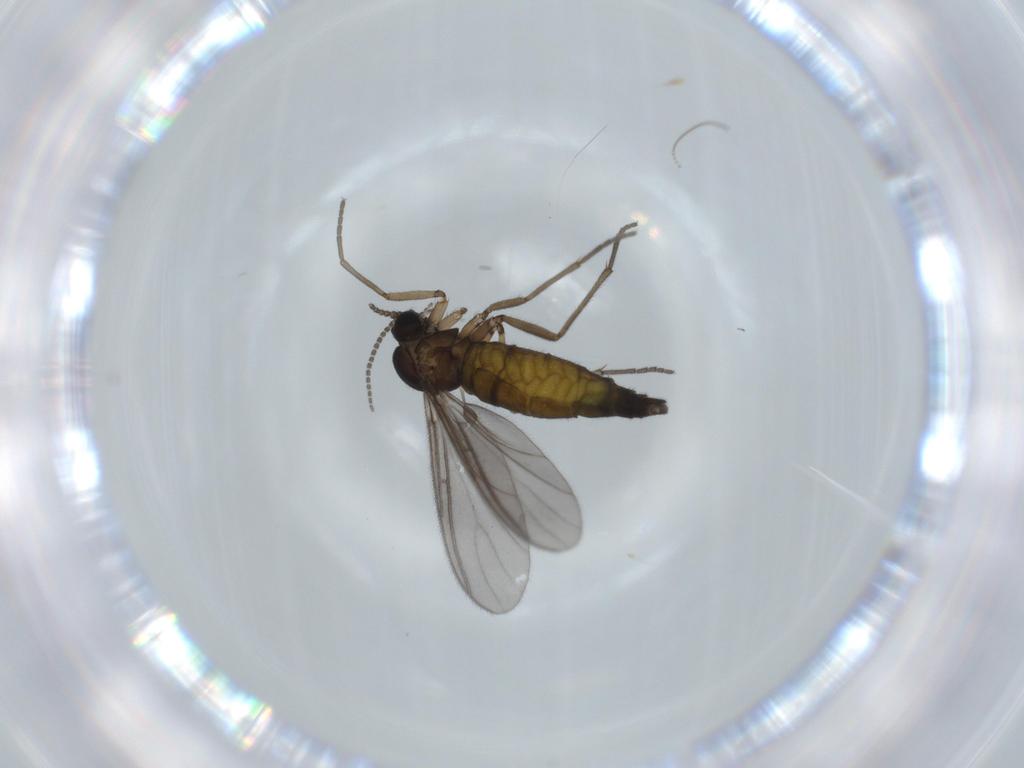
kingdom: Animalia
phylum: Arthropoda
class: Insecta
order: Diptera
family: Sciaridae
